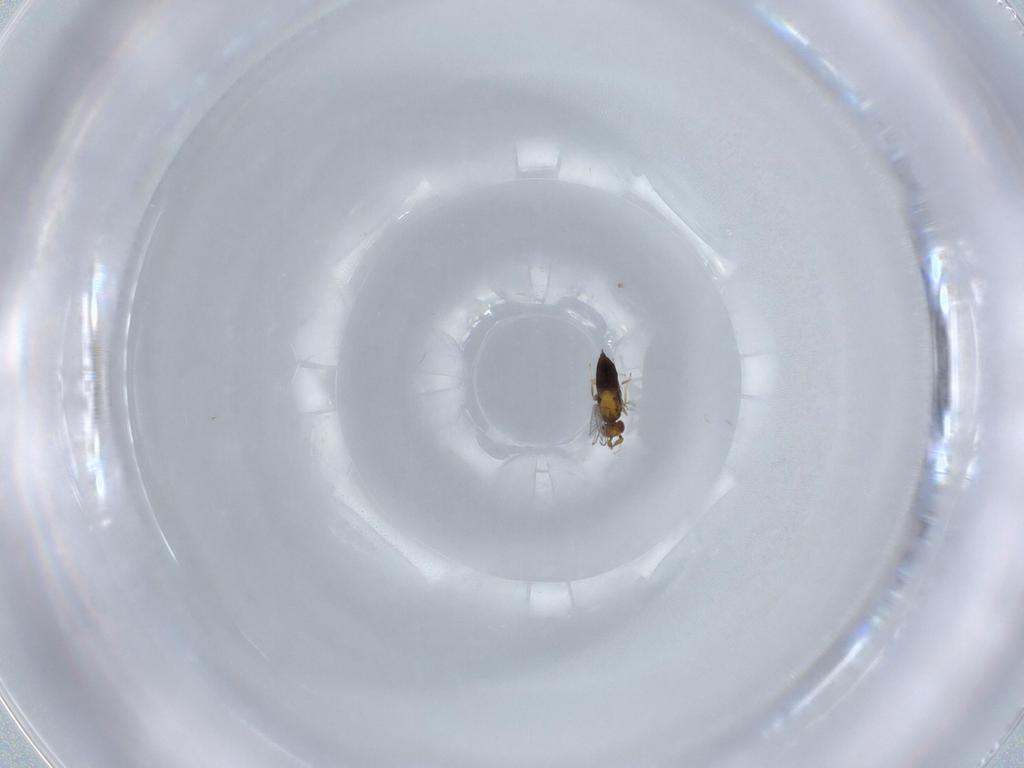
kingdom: Animalia
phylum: Arthropoda
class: Insecta
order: Hymenoptera
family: Trichogrammatidae
